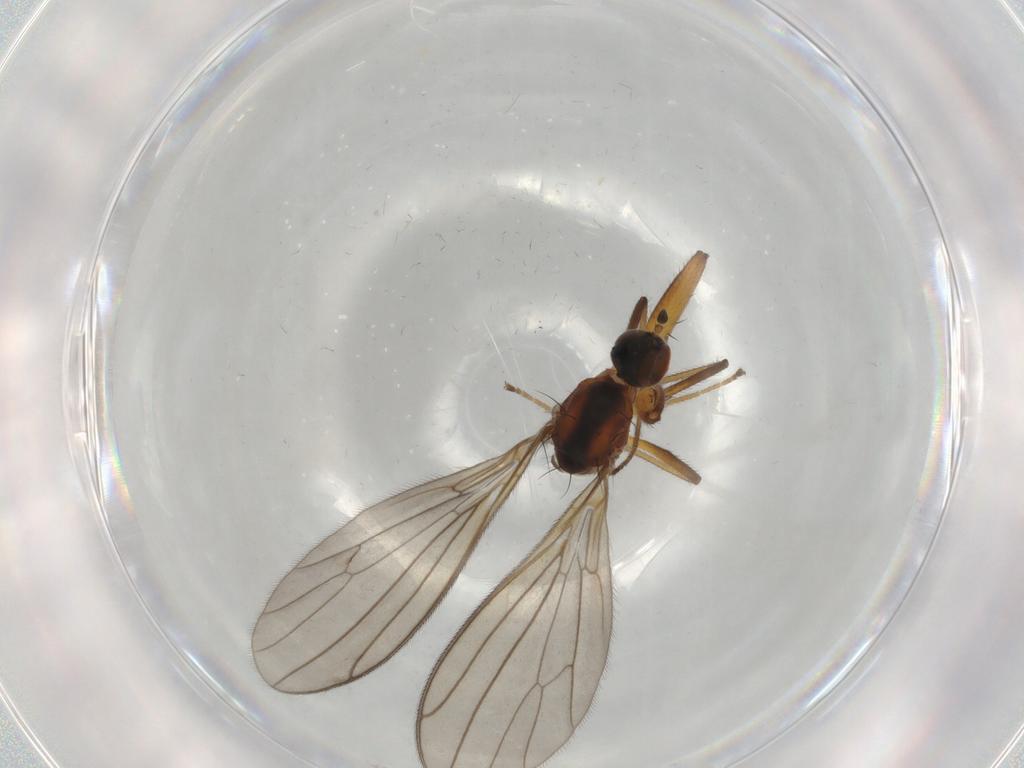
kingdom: Animalia
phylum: Arthropoda
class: Insecta
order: Diptera
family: Empididae
